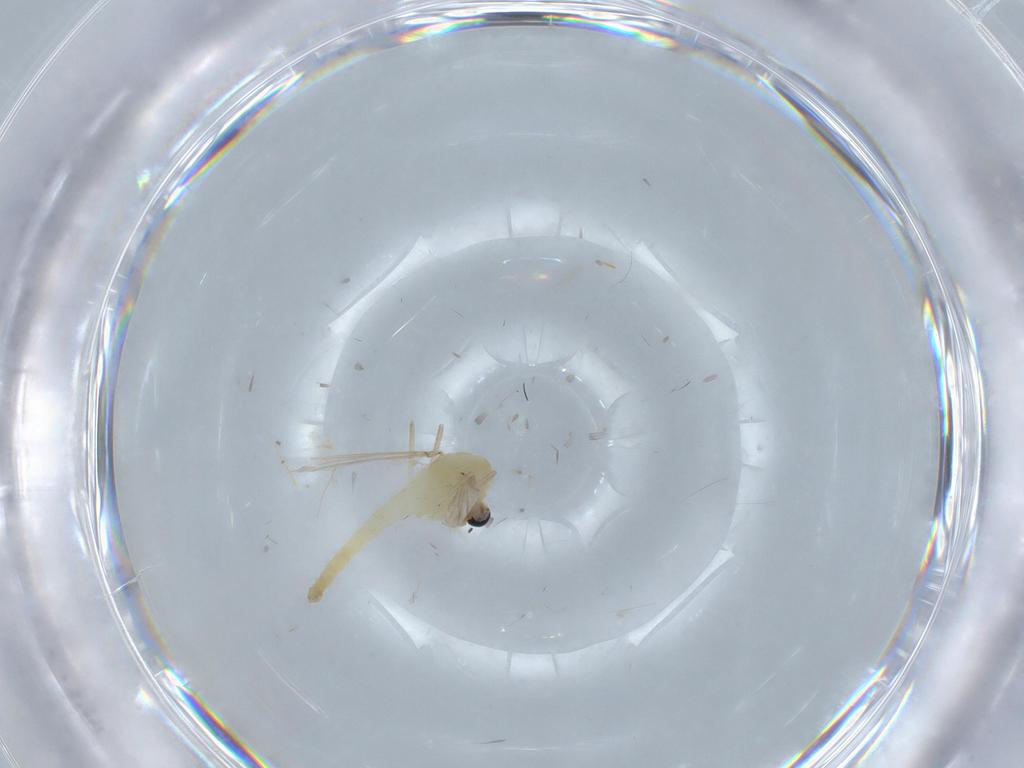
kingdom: Animalia
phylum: Arthropoda
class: Insecta
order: Diptera
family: Chironomidae
